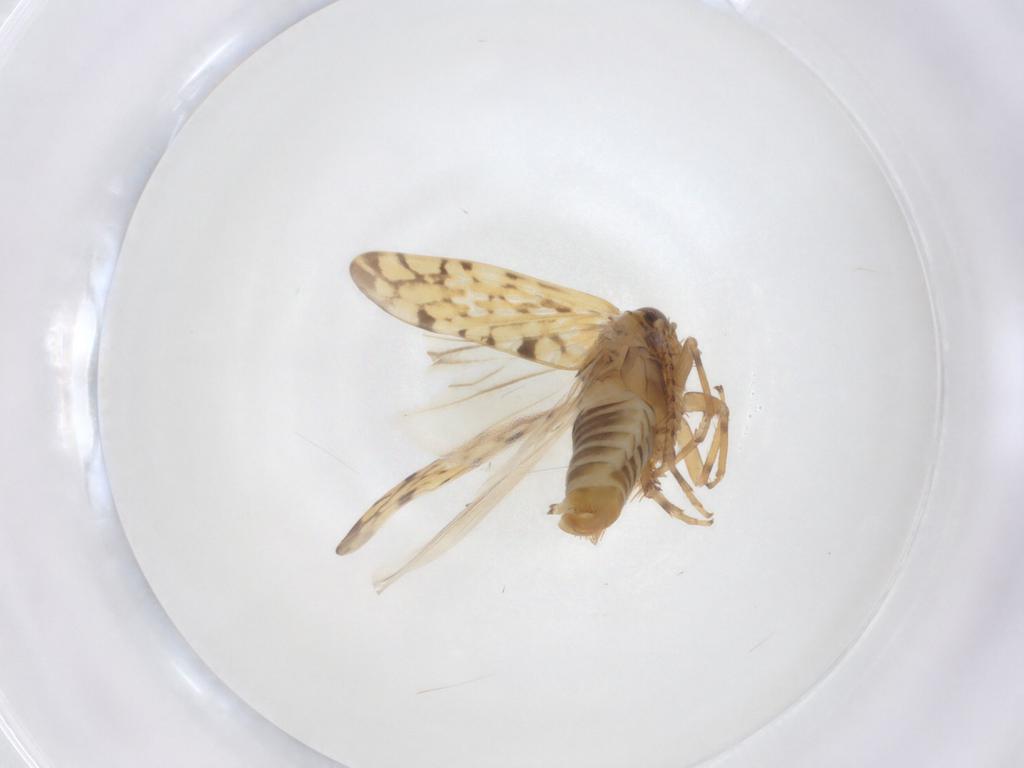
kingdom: Animalia
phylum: Arthropoda
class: Insecta
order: Hemiptera
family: Cicadellidae
